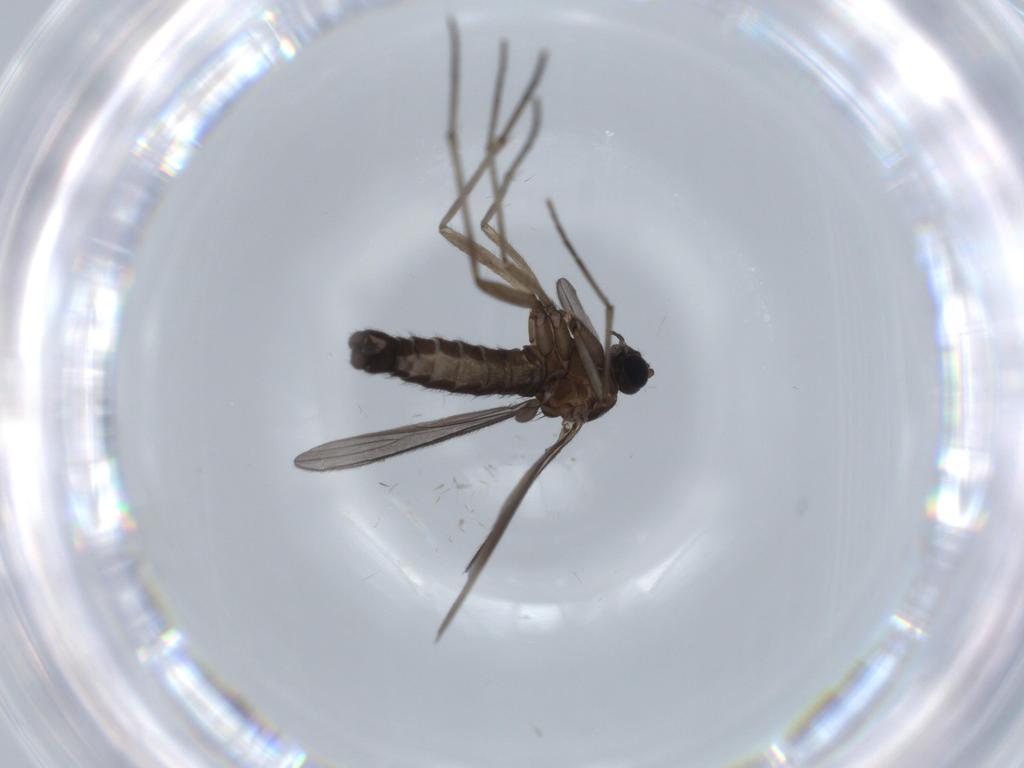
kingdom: Animalia
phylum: Arthropoda
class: Insecta
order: Diptera
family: Sciaridae
